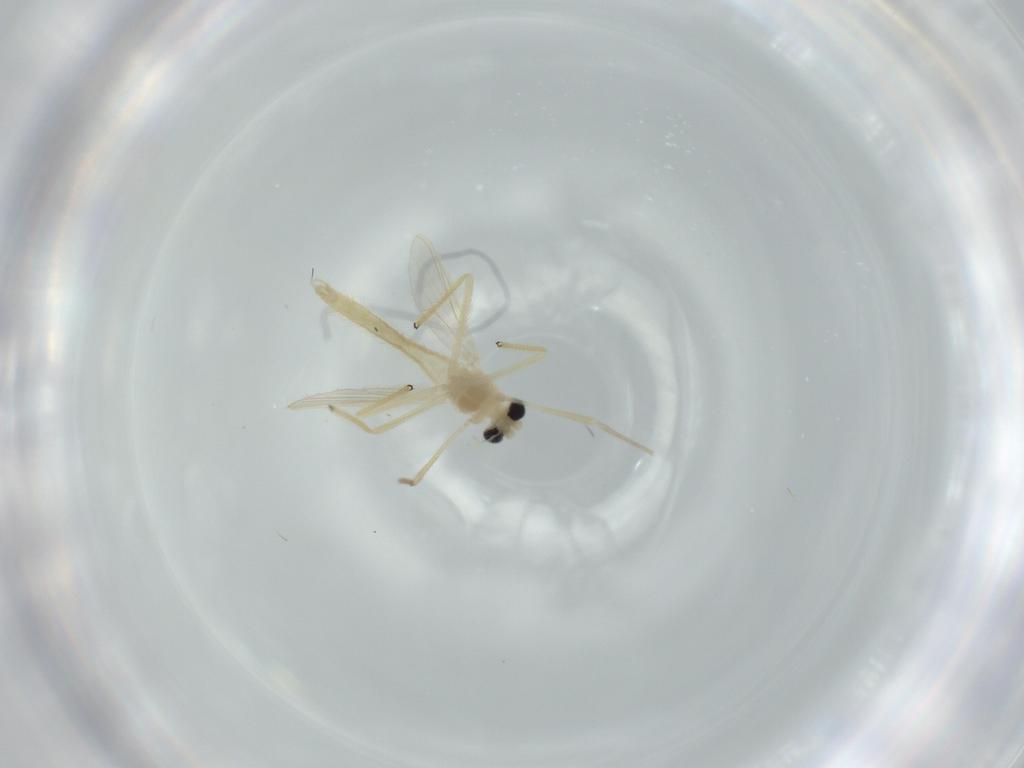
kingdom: Animalia
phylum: Arthropoda
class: Insecta
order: Diptera
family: Chironomidae
